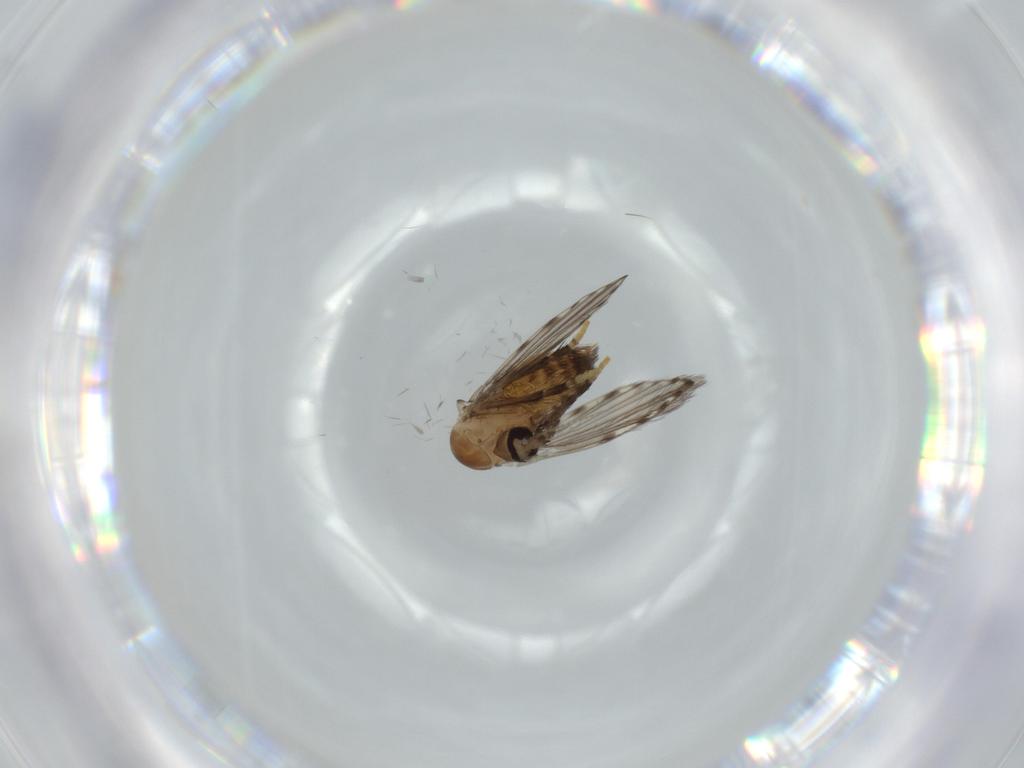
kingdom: Animalia
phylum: Arthropoda
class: Insecta
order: Diptera
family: Psychodidae
